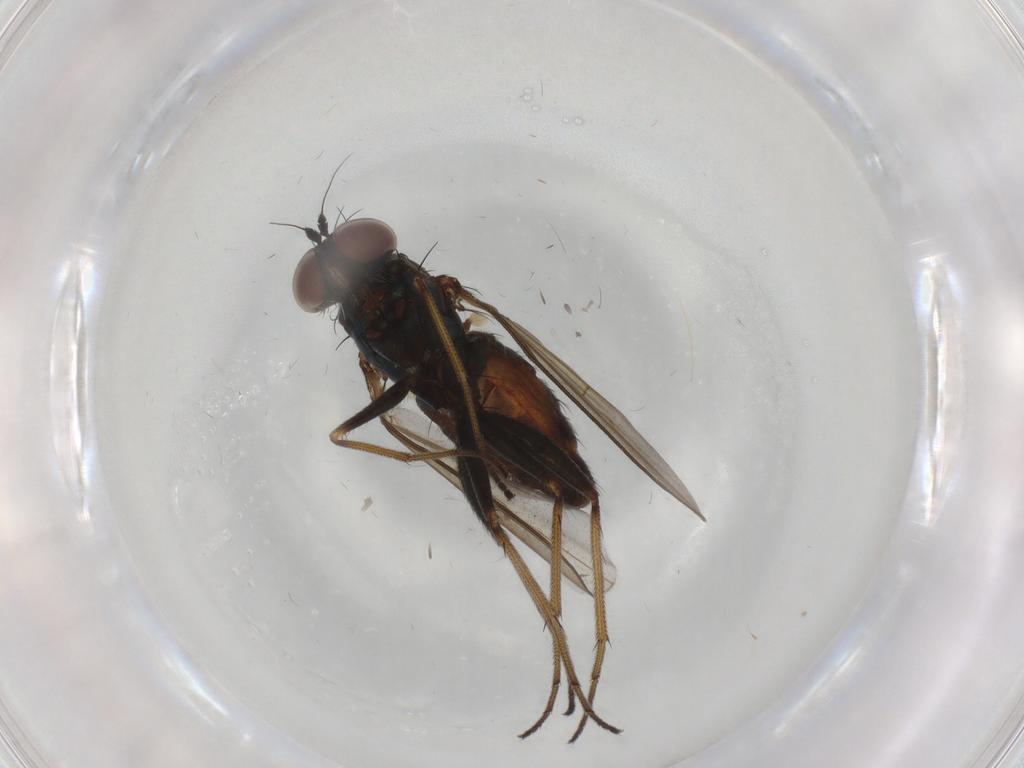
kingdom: Animalia
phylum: Arthropoda
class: Insecta
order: Diptera
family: Dolichopodidae
